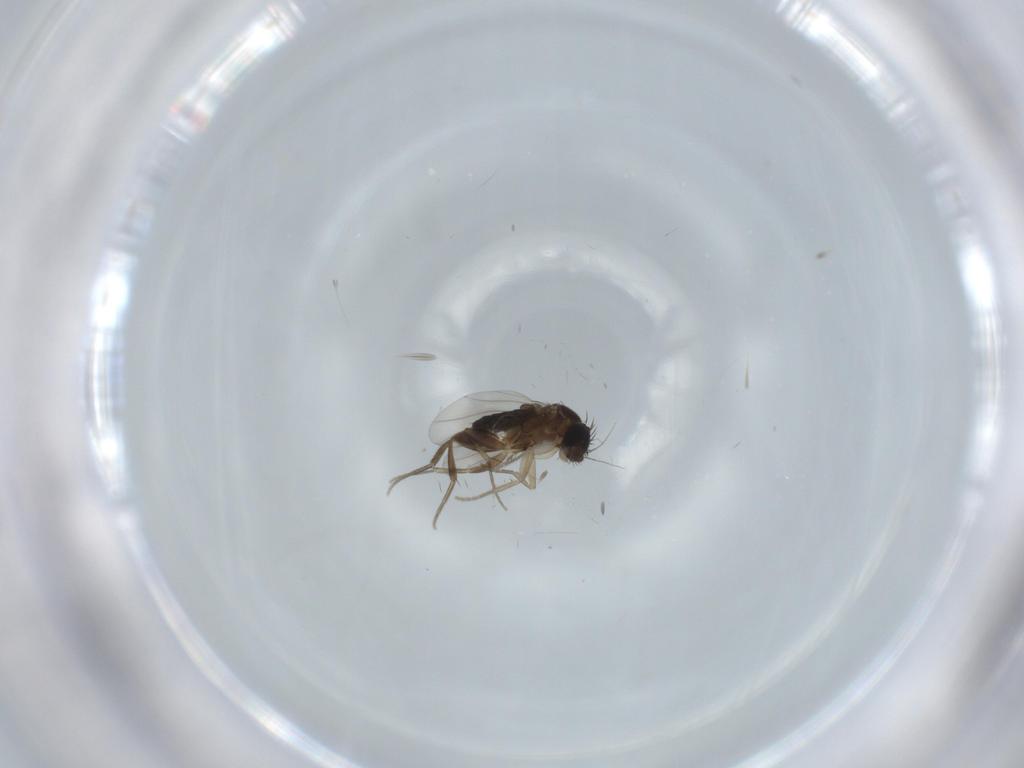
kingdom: Animalia
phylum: Arthropoda
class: Insecta
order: Diptera
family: Phoridae
